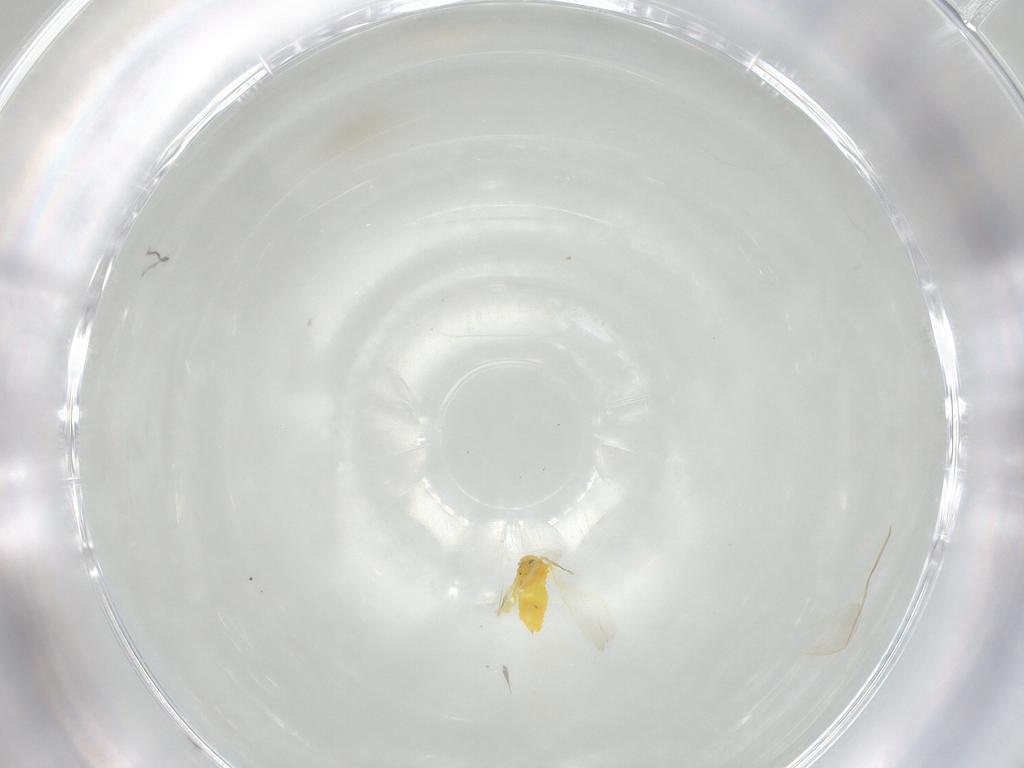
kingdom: Animalia
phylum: Arthropoda
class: Insecta
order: Hemiptera
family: Aleyrodidae
